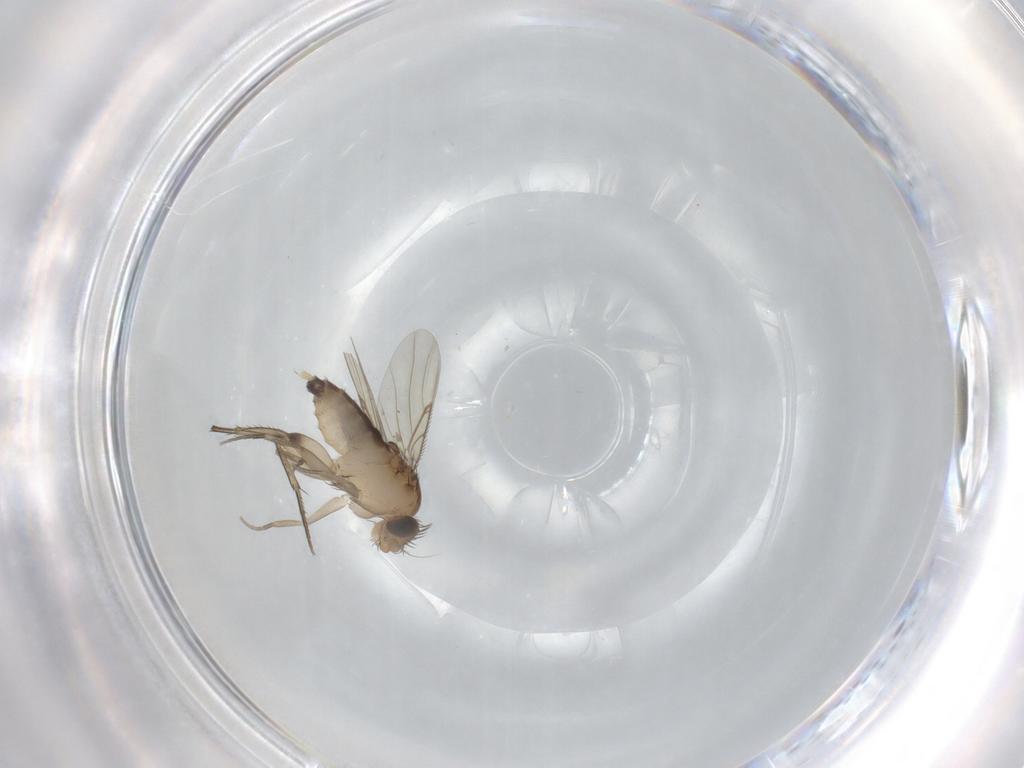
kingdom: Animalia
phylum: Arthropoda
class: Insecta
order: Diptera
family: Cecidomyiidae
